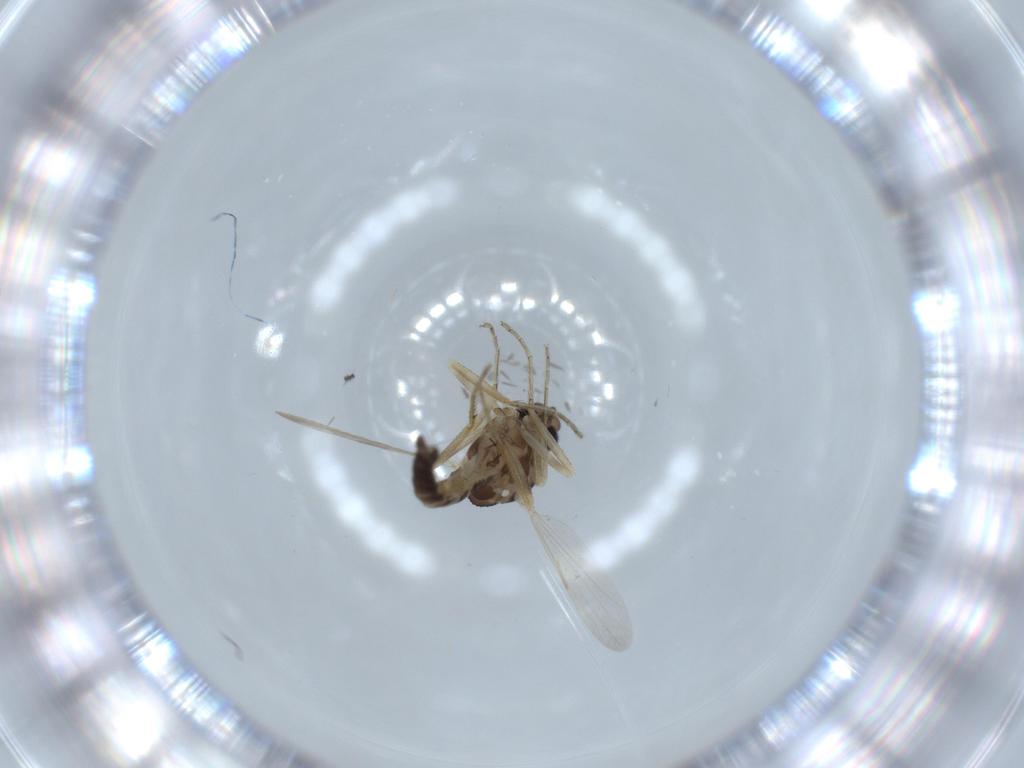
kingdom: Animalia
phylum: Arthropoda
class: Insecta
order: Diptera
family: Ceratopogonidae
